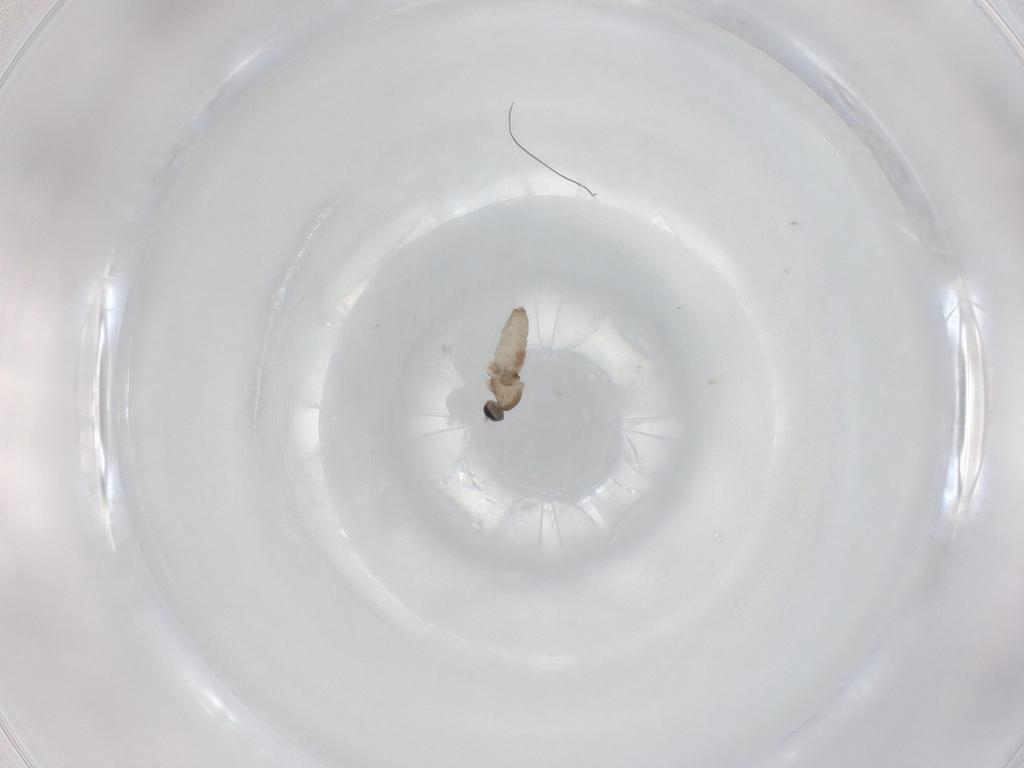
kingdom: Animalia
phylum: Arthropoda
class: Insecta
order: Diptera
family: Cecidomyiidae
